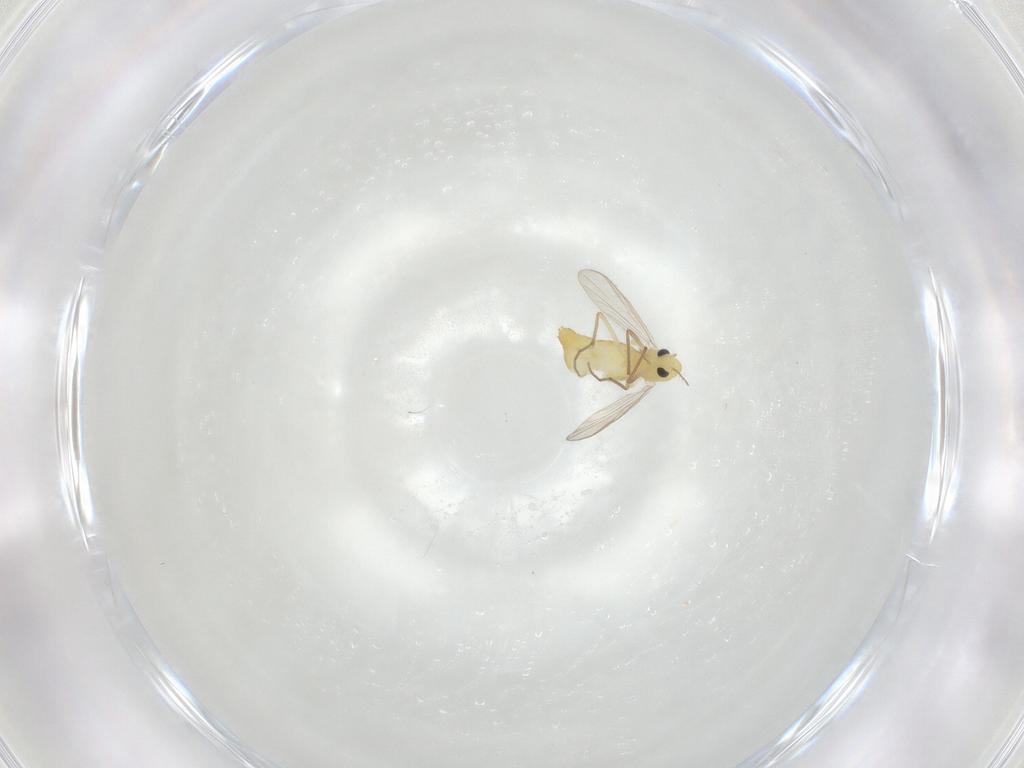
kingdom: Animalia
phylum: Arthropoda
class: Insecta
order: Diptera
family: Chironomidae
